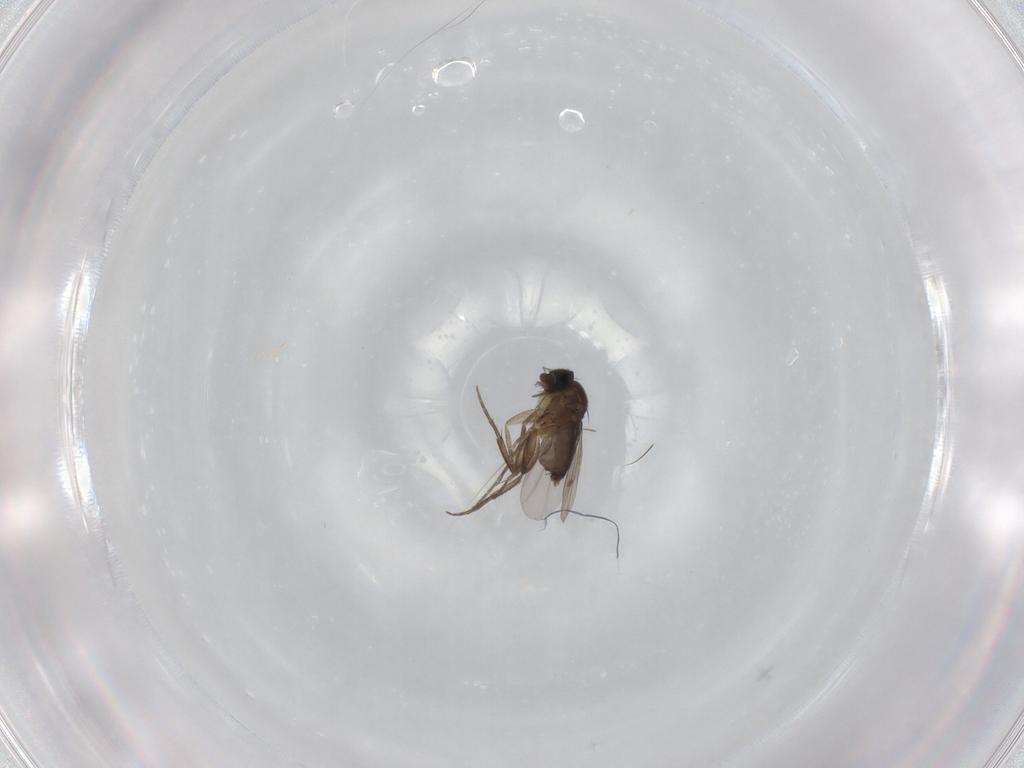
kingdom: Animalia
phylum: Arthropoda
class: Insecta
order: Diptera
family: Phoridae
